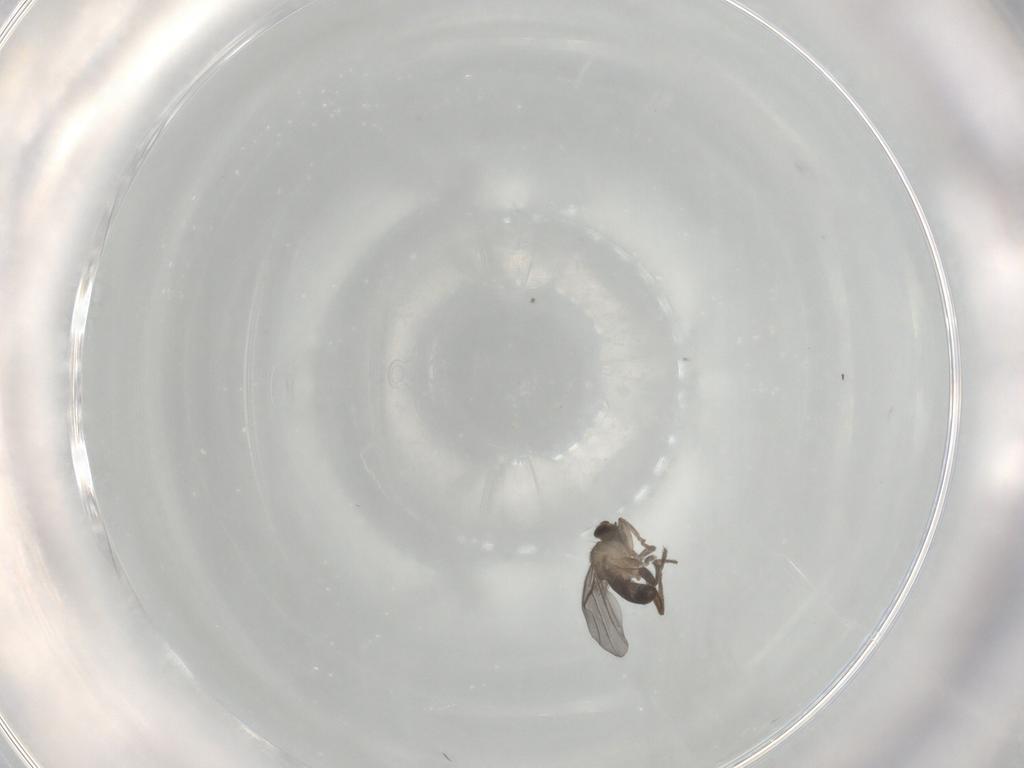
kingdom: Animalia
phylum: Arthropoda
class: Insecta
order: Diptera
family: Phoridae
